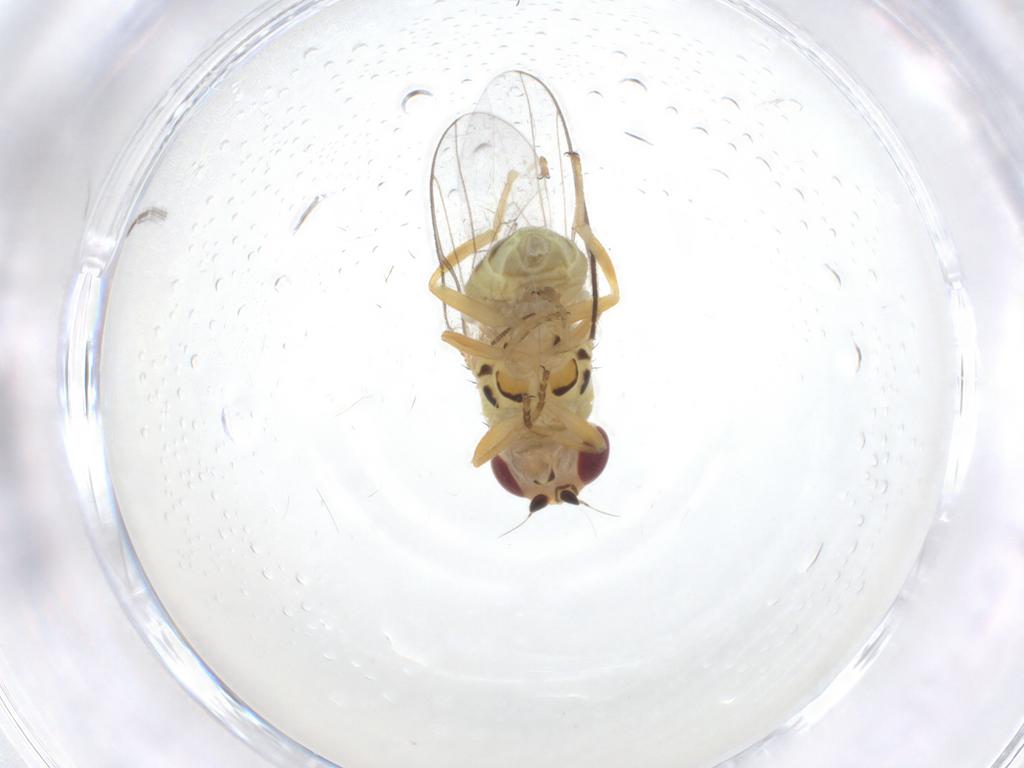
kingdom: Animalia
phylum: Arthropoda
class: Insecta
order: Diptera
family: Chloropidae
